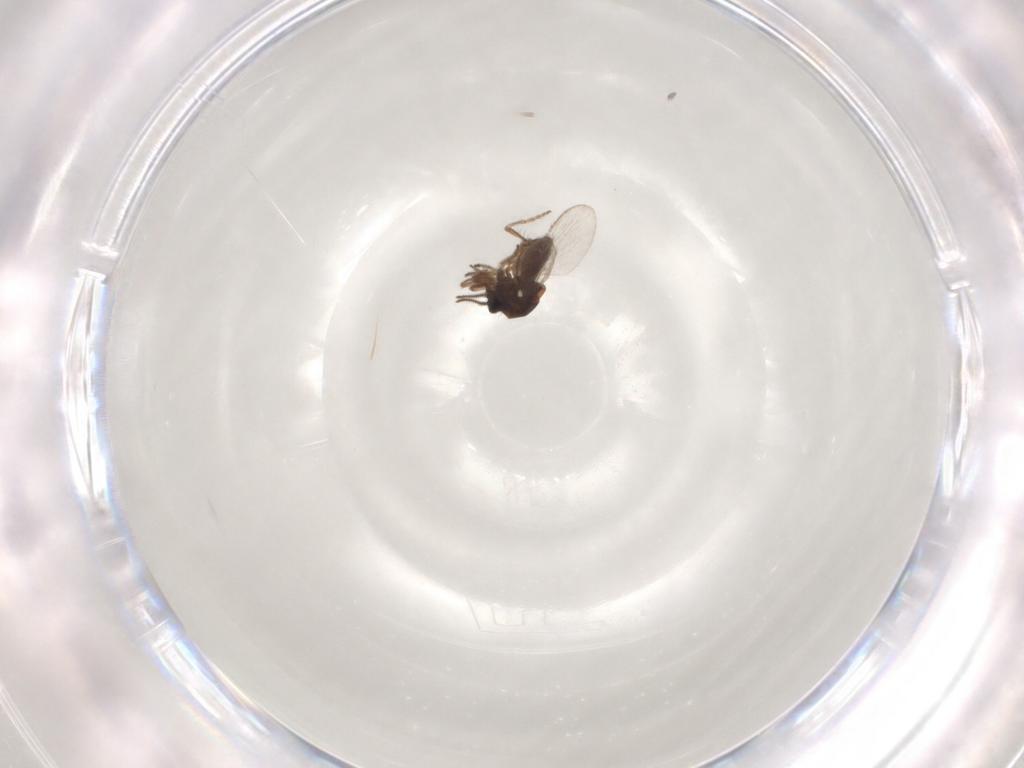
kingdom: Animalia
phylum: Arthropoda
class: Insecta
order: Diptera
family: Ceratopogonidae
